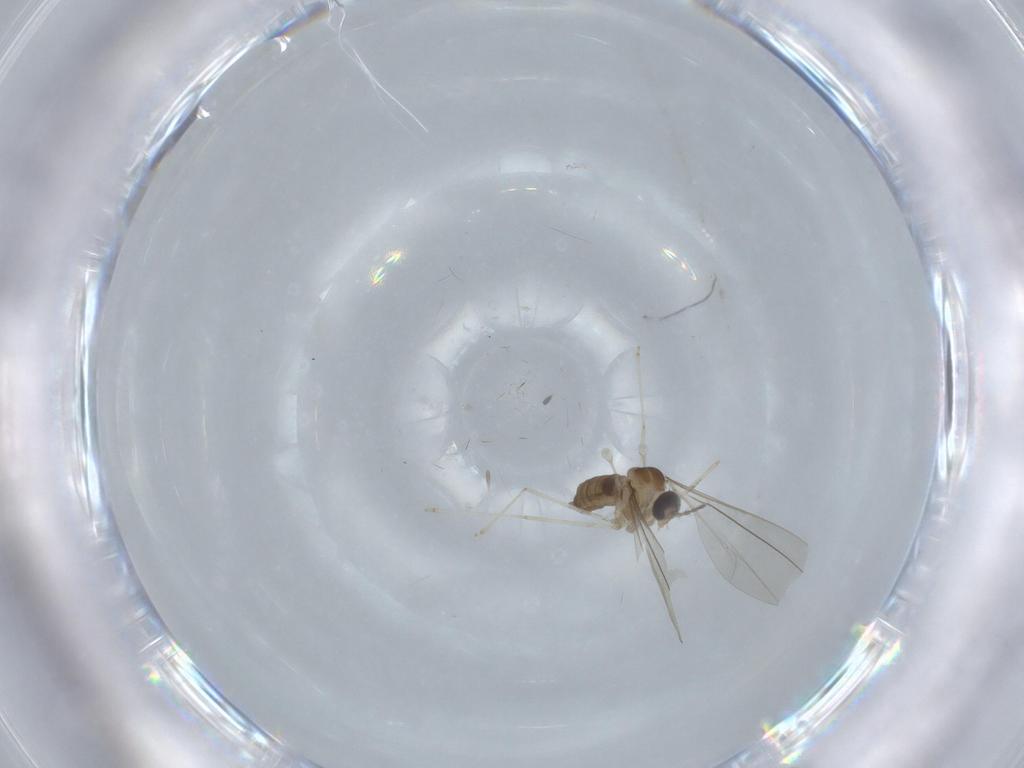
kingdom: Animalia
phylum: Arthropoda
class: Insecta
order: Diptera
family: Cecidomyiidae
